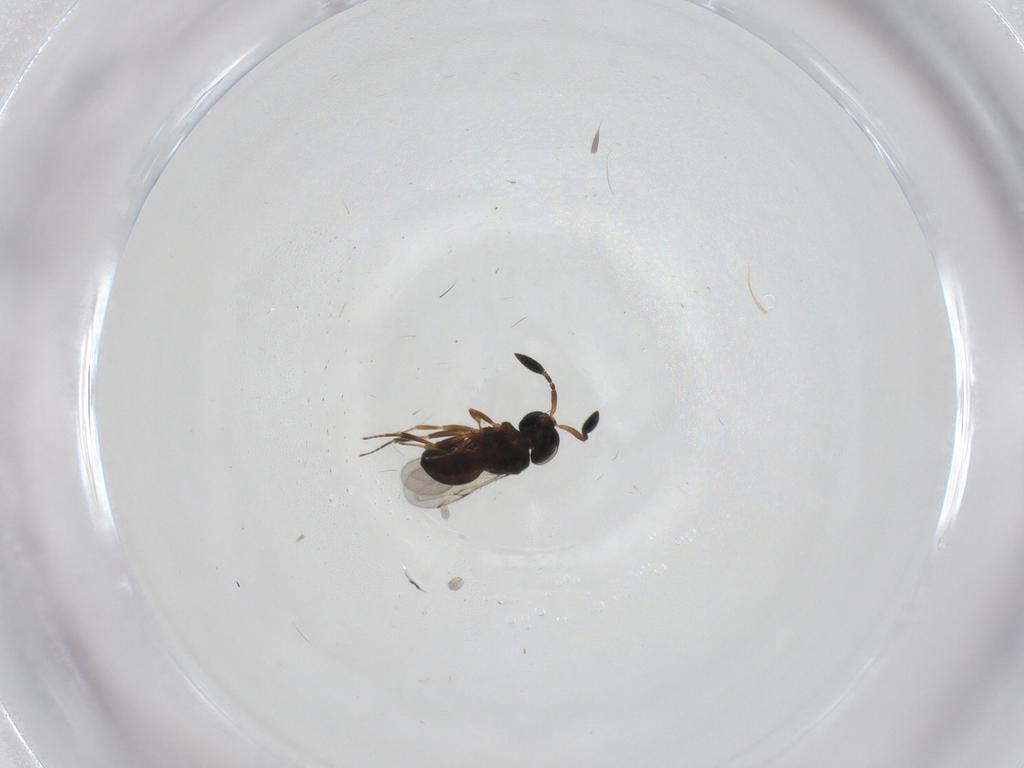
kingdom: Animalia
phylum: Arthropoda
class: Insecta
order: Hymenoptera
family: Scelionidae
